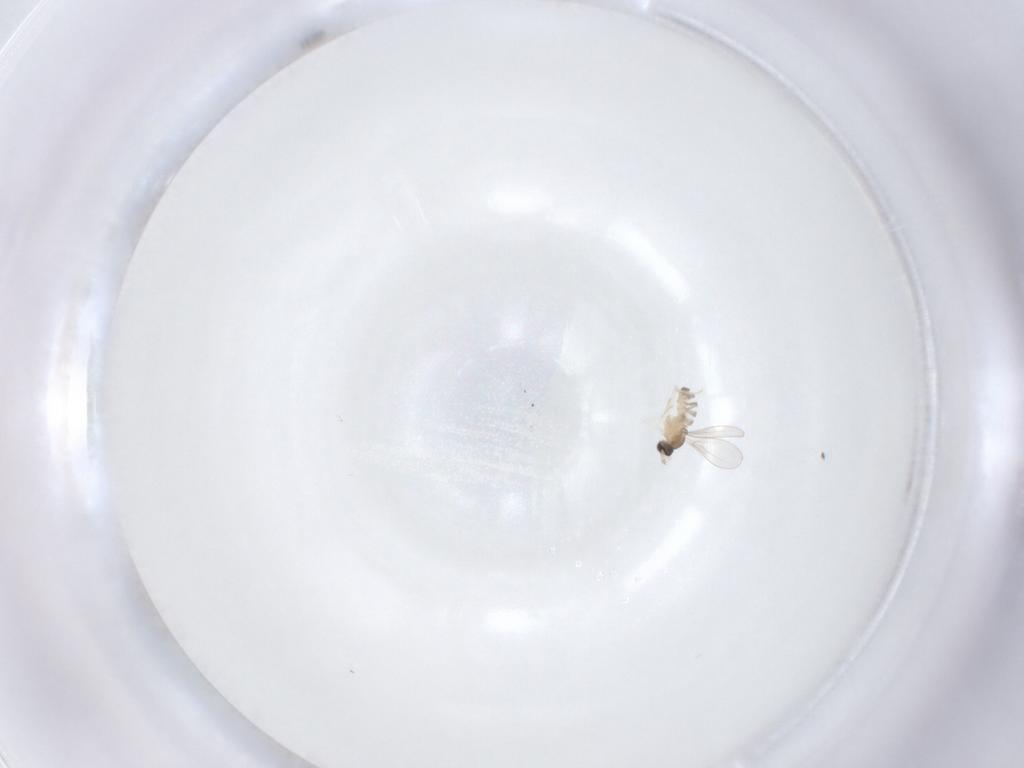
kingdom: Animalia
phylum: Arthropoda
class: Insecta
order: Diptera
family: Cecidomyiidae
